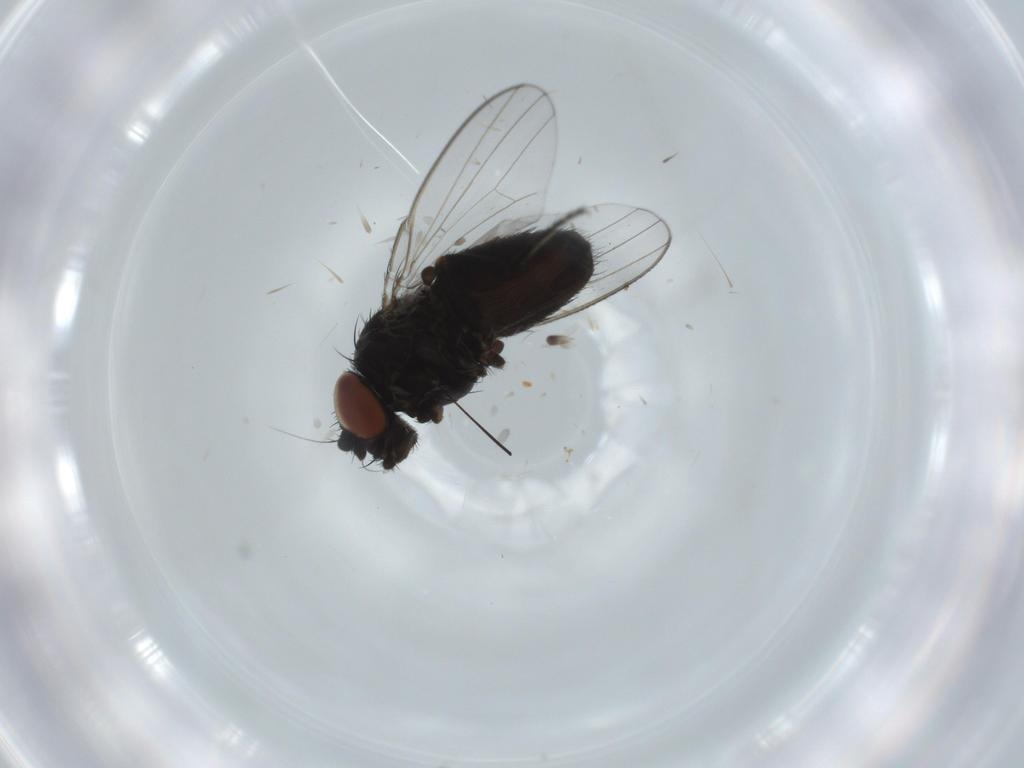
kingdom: Animalia
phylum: Arthropoda
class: Insecta
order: Diptera
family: Milichiidae
